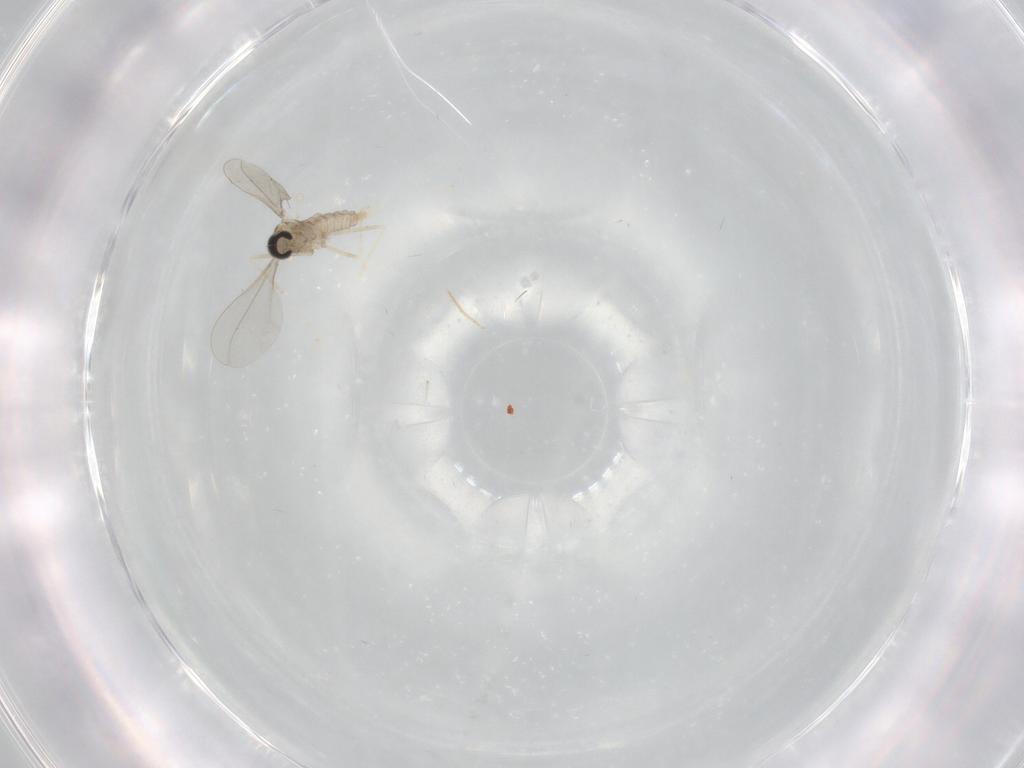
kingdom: Animalia
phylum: Arthropoda
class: Insecta
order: Diptera
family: Cecidomyiidae
